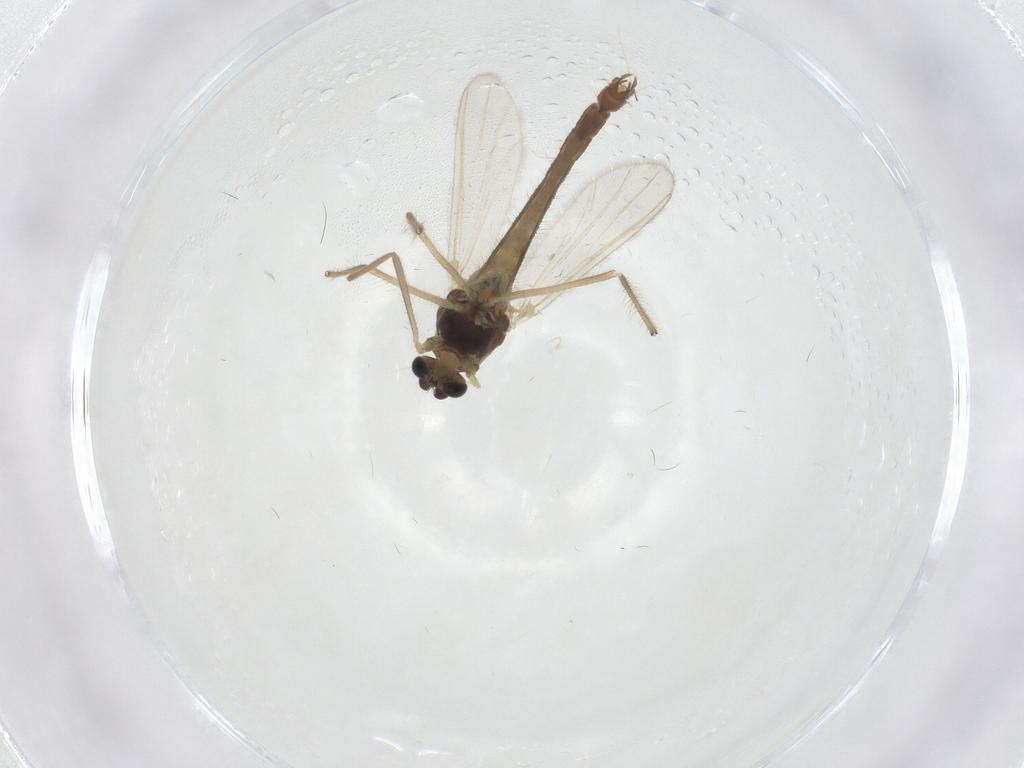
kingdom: Animalia
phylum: Arthropoda
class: Insecta
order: Diptera
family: Chironomidae
